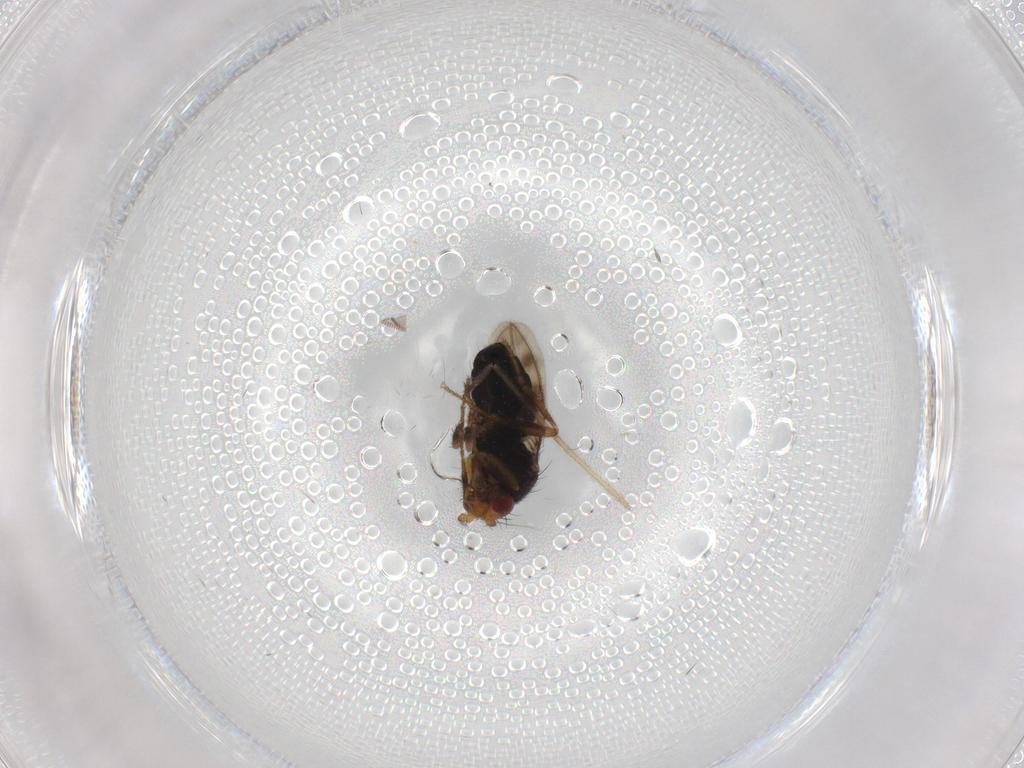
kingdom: Animalia
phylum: Arthropoda
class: Insecta
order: Diptera
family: Sphaeroceridae
